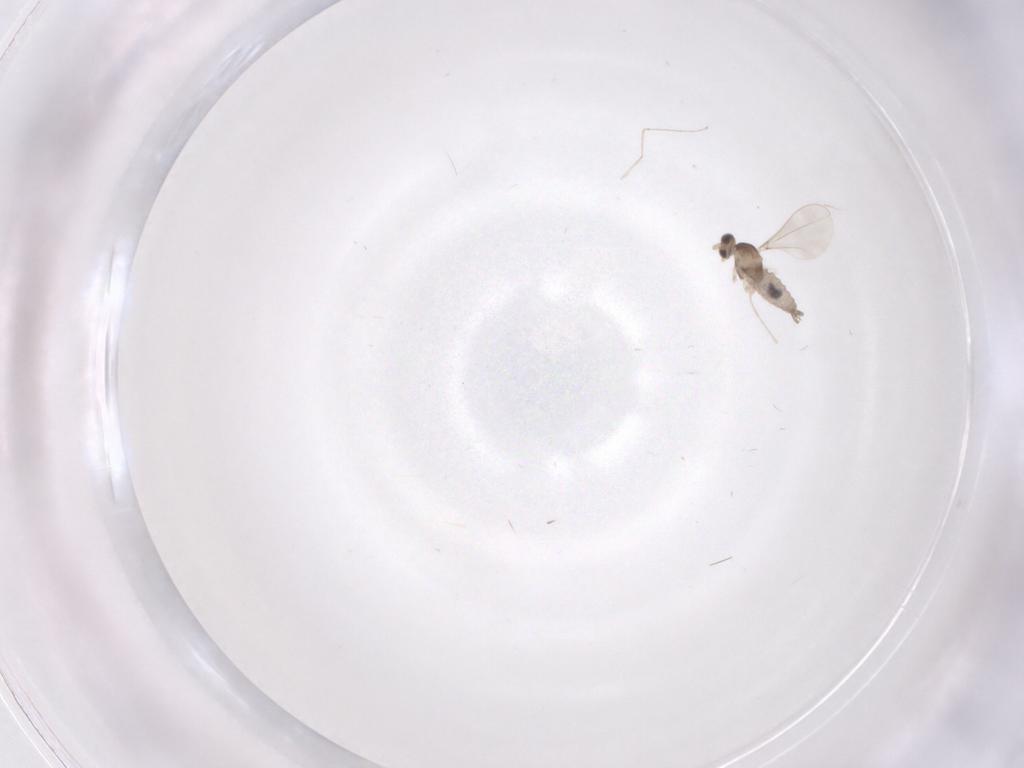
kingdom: Animalia
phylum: Arthropoda
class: Insecta
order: Diptera
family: Cecidomyiidae
